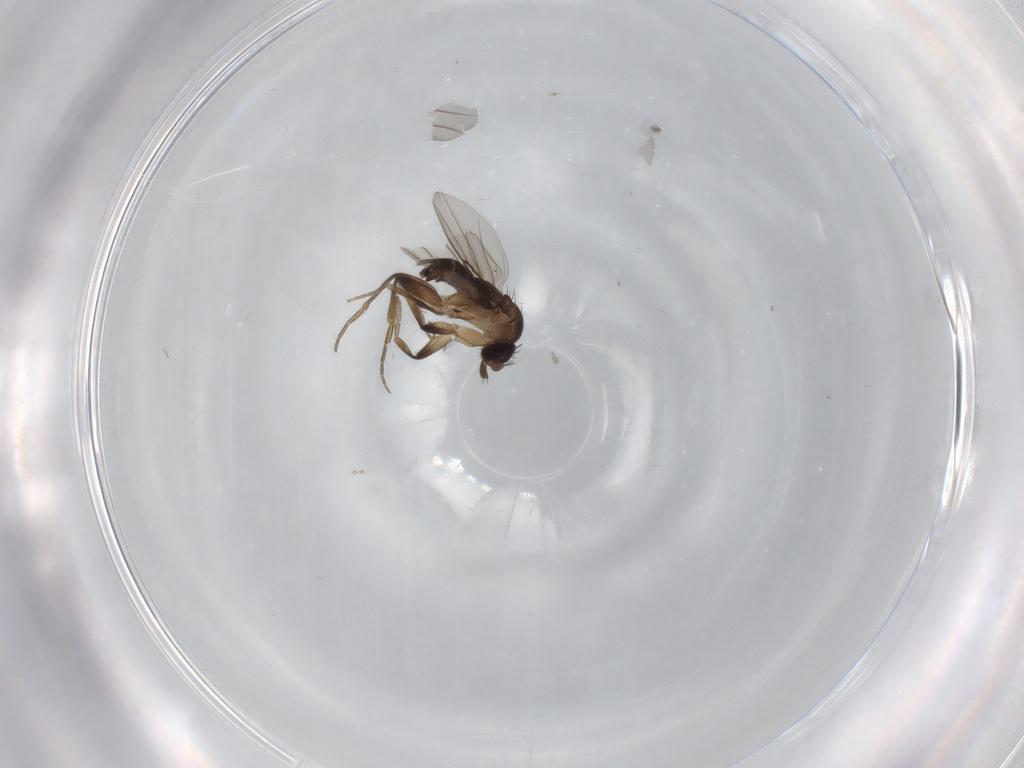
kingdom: Animalia
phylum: Arthropoda
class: Insecta
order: Diptera
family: Phoridae
